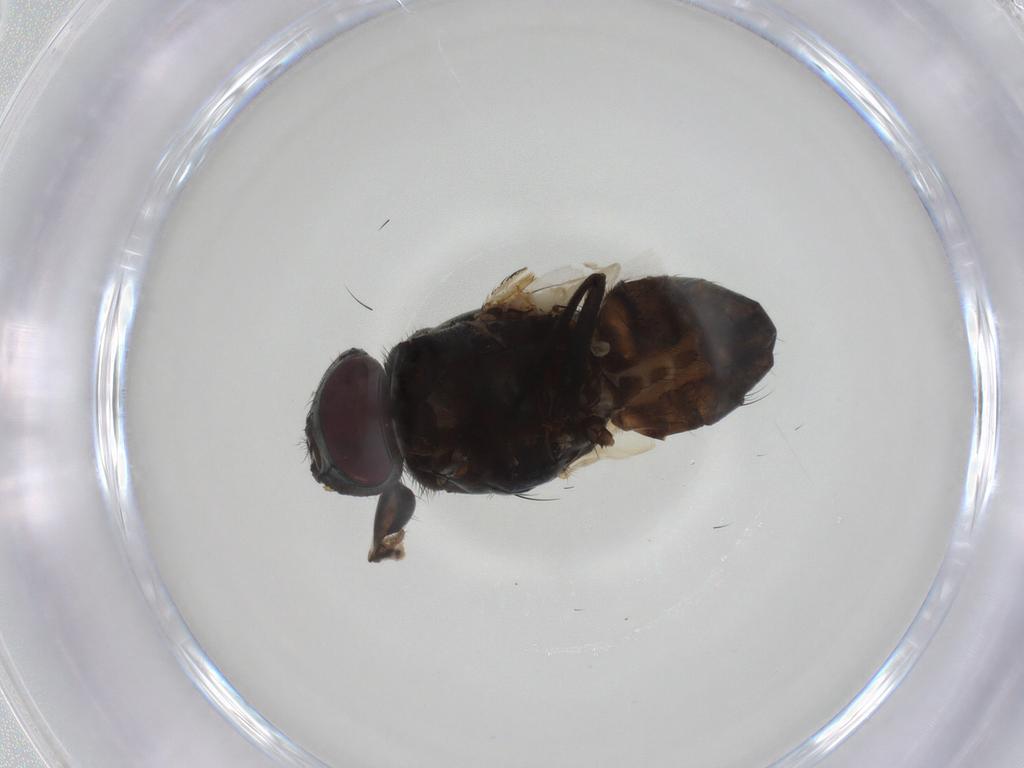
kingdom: Animalia
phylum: Arthropoda
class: Insecta
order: Diptera
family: Muscidae
